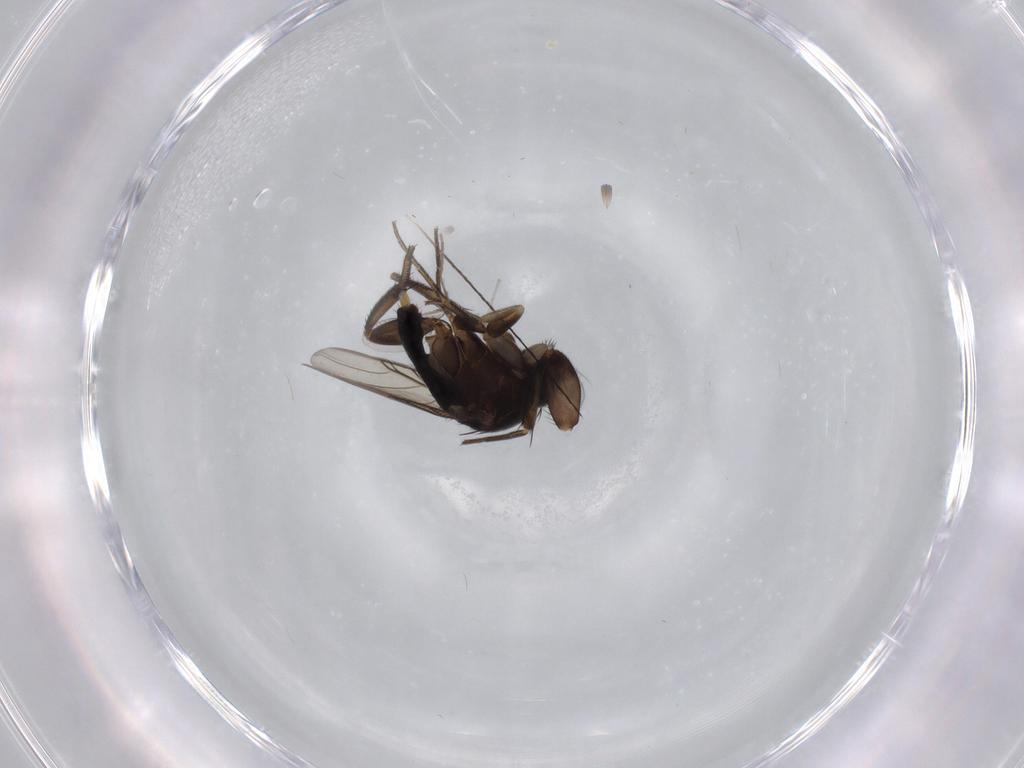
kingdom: Animalia
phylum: Arthropoda
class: Insecta
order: Diptera
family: Phoridae
